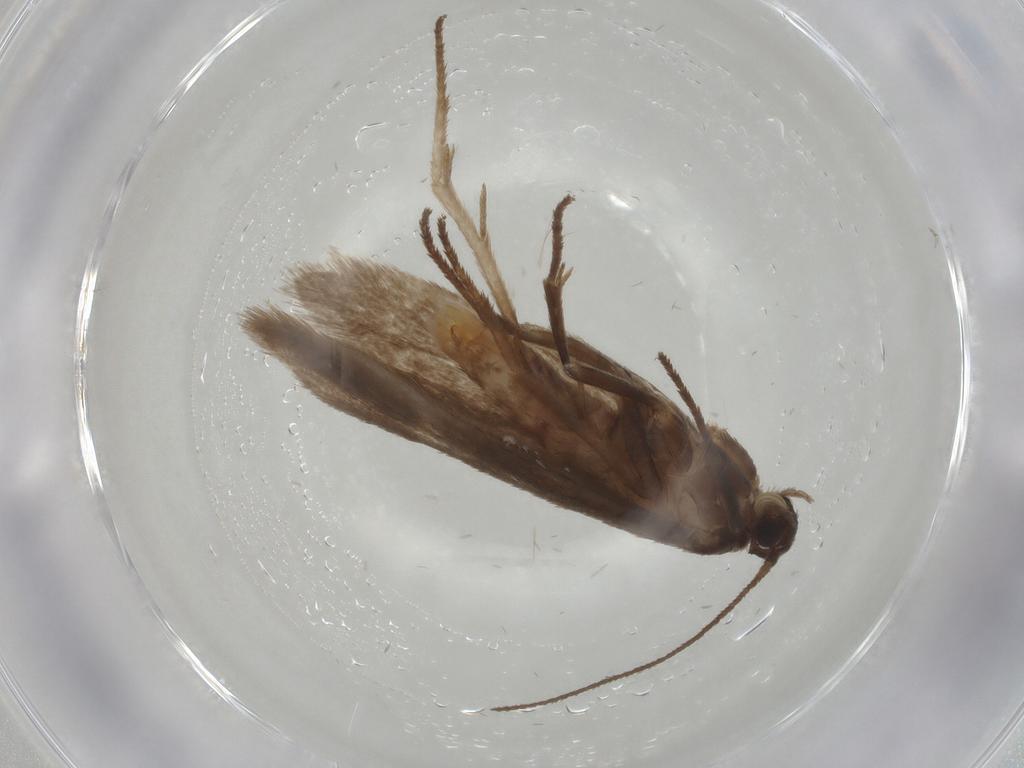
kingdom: Animalia
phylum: Arthropoda
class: Insecta
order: Lepidoptera
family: Limacodidae
